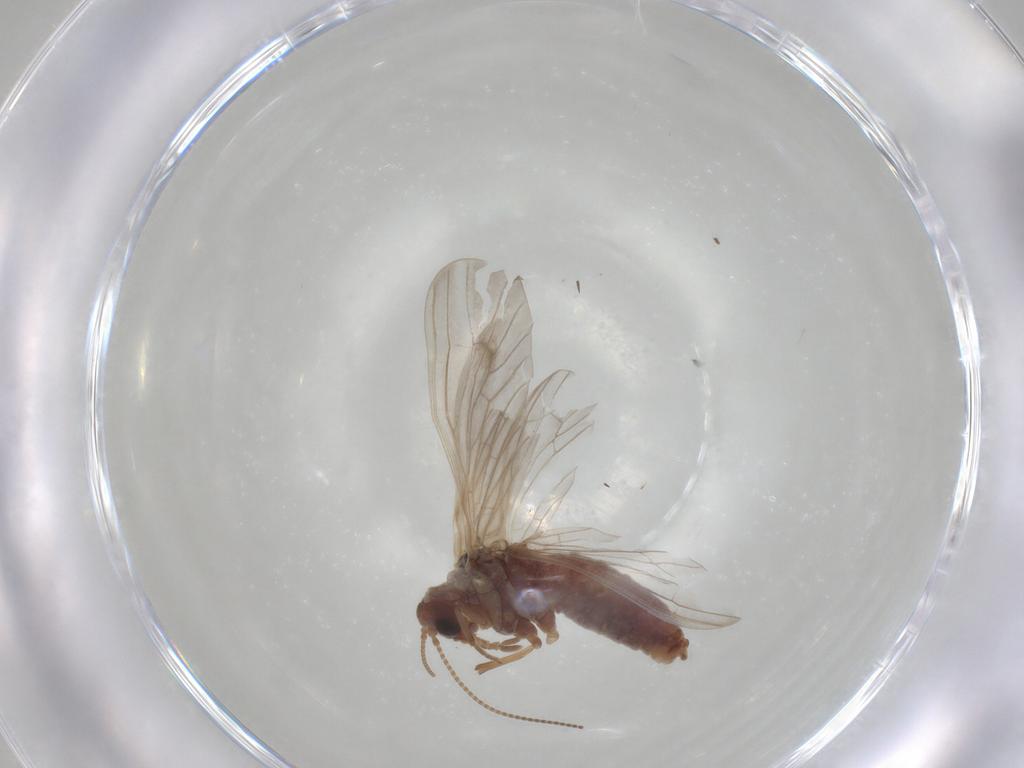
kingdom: Animalia
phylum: Arthropoda
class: Insecta
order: Neuroptera
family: Coniopterygidae
